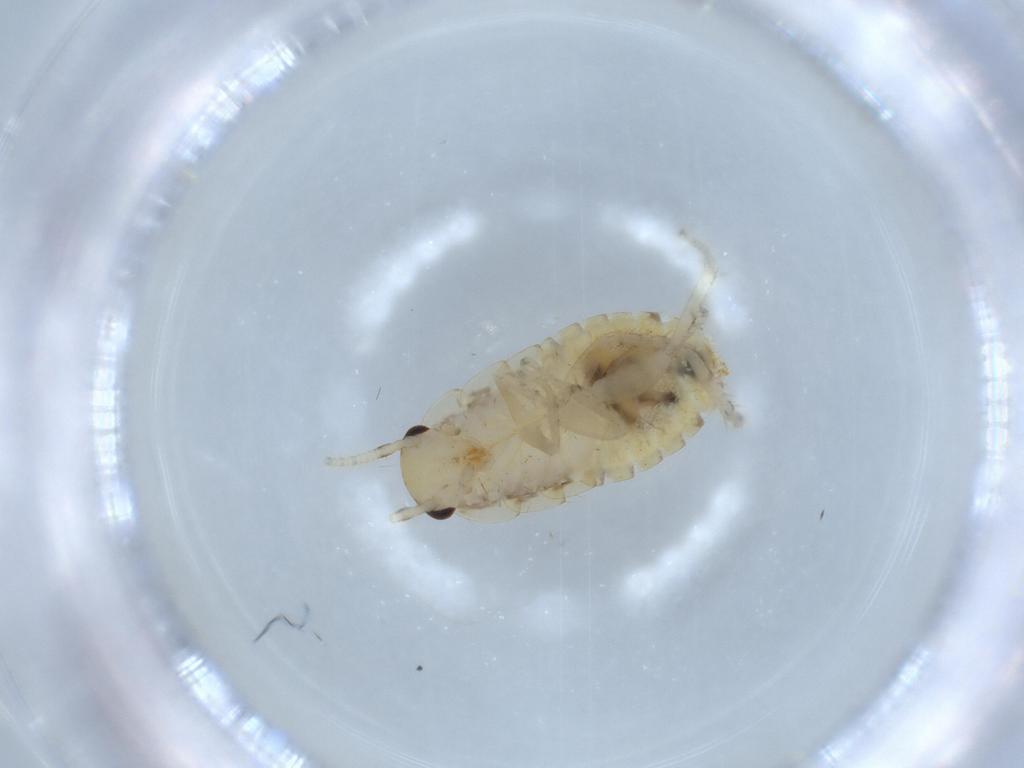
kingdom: Animalia
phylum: Arthropoda
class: Insecta
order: Blattodea
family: Ectobiidae
